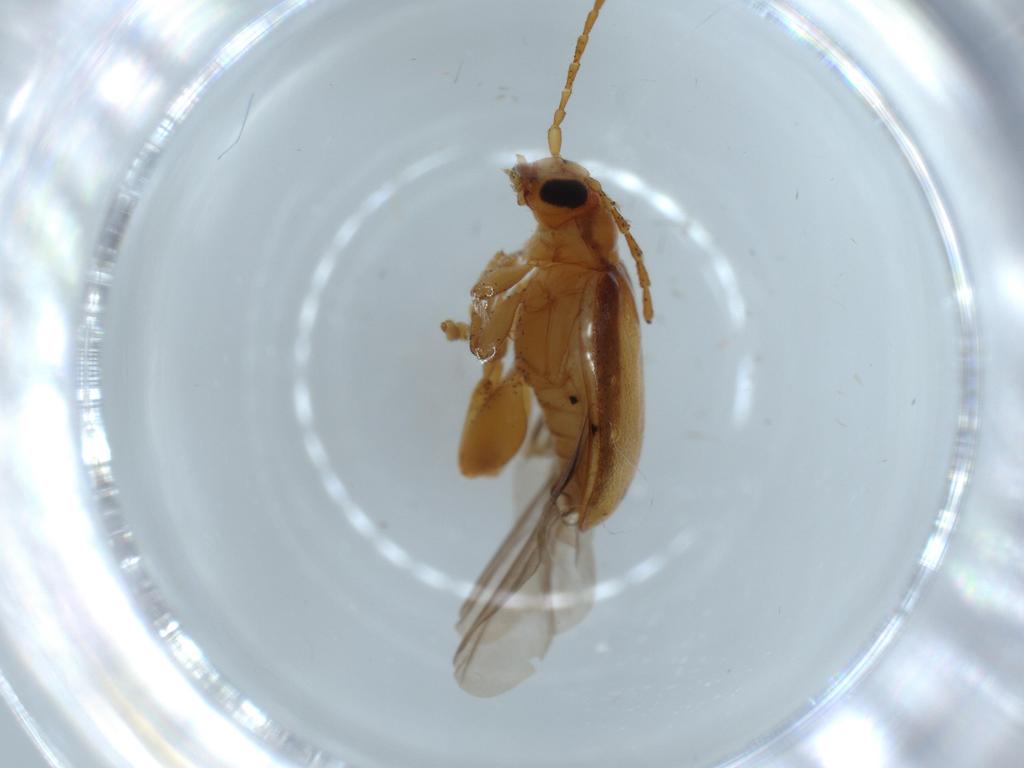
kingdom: Animalia
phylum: Arthropoda
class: Insecta
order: Coleoptera
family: Chrysomelidae
